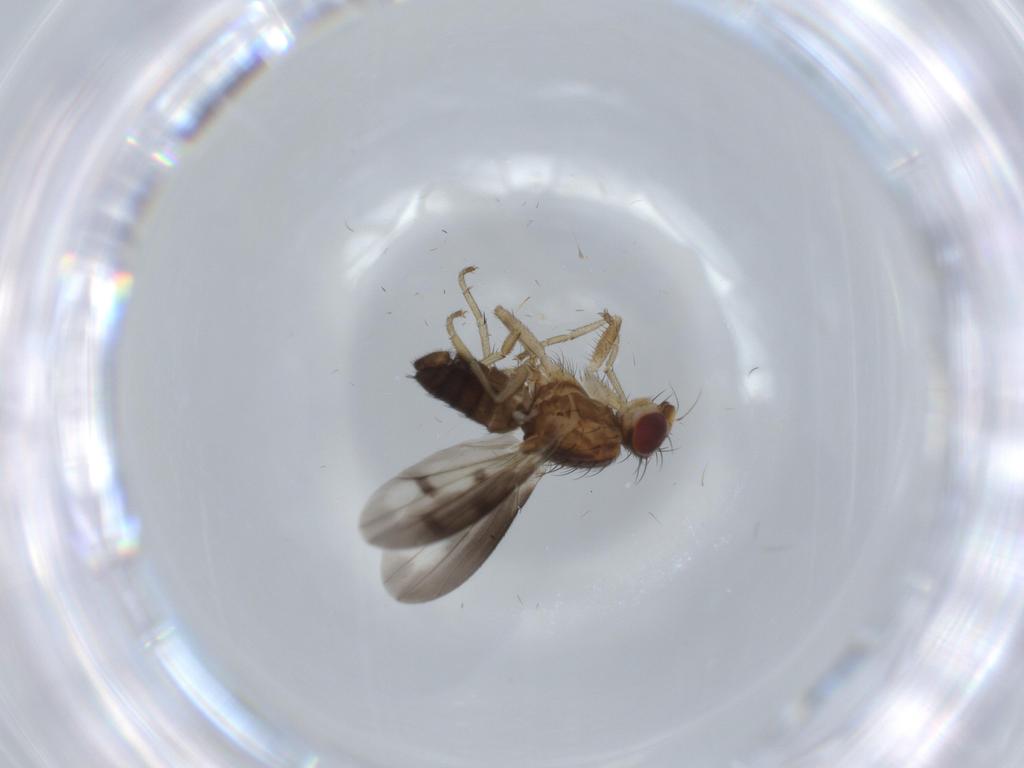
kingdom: Animalia
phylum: Arthropoda
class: Insecta
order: Diptera
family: Heleomyzidae
